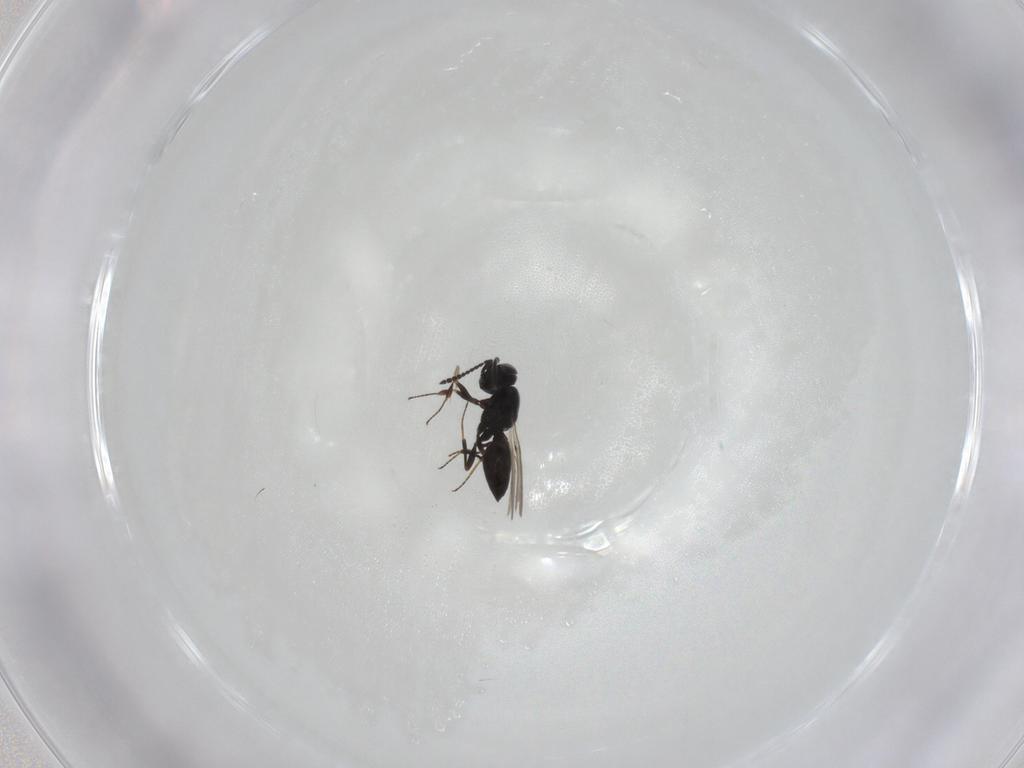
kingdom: Animalia
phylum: Arthropoda
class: Insecta
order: Hymenoptera
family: Scelionidae
